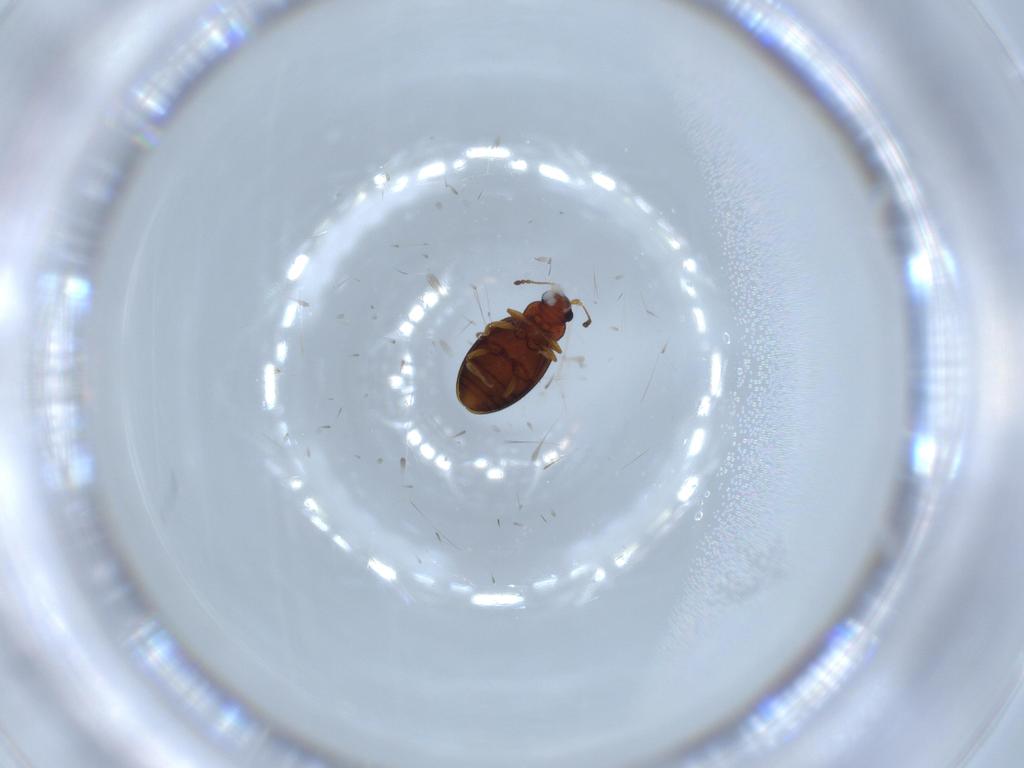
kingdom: Animalia
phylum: Arthropoda
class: Insecta
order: Coleoptera
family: Latridiidae
